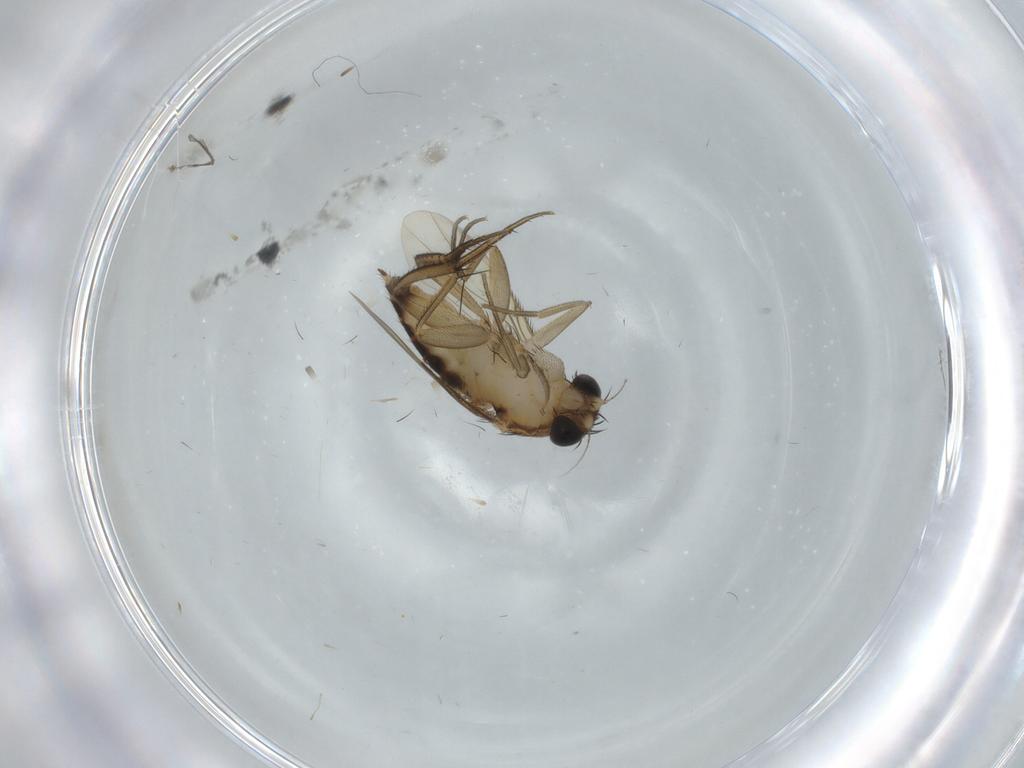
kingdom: Animalia
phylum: Arthropoda
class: Insecta
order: Diptera
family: Phoridae
